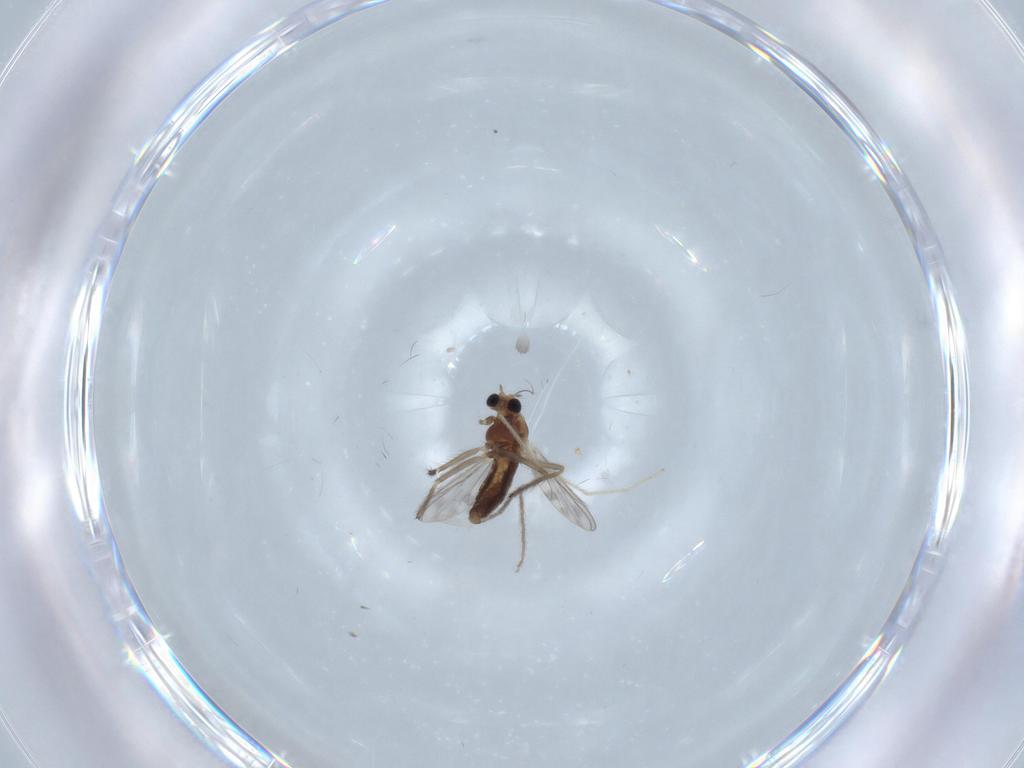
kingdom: Animalia
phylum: Arthropoda
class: Insecta
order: Diptera
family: Chironomidae
